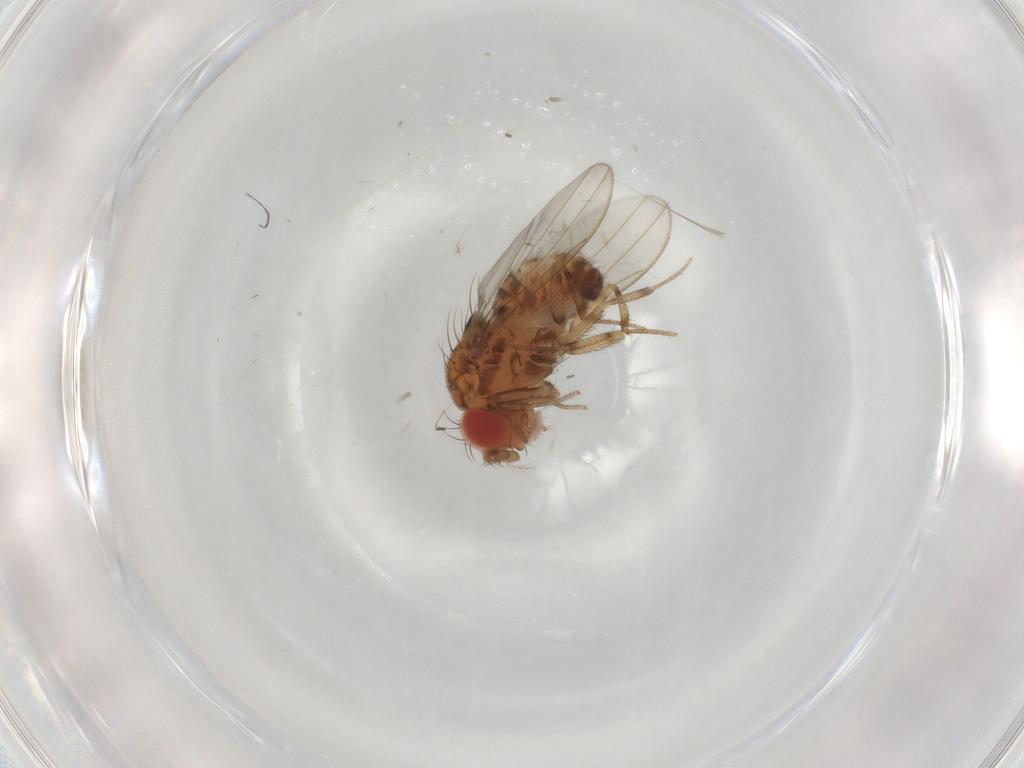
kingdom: Animalia
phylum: Arthropoda
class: Insecta
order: Diptera
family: Drosophilidae
